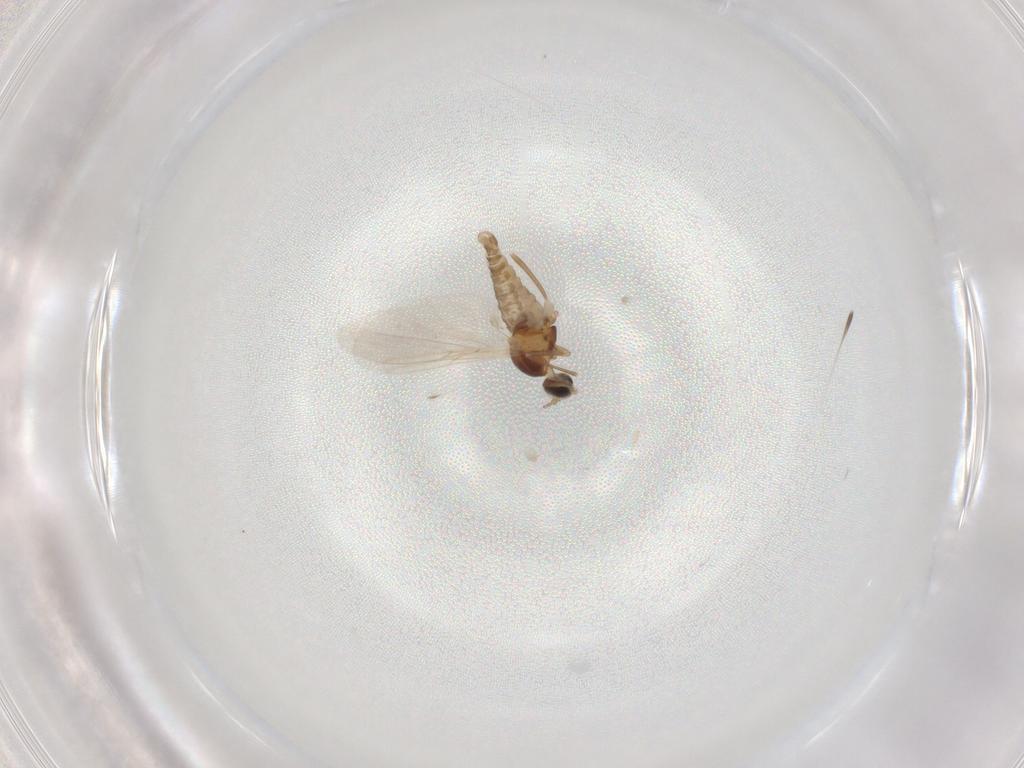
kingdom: Animalia
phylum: Arthropoda
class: Insecta
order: Diptera
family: Cecidomyiidae
